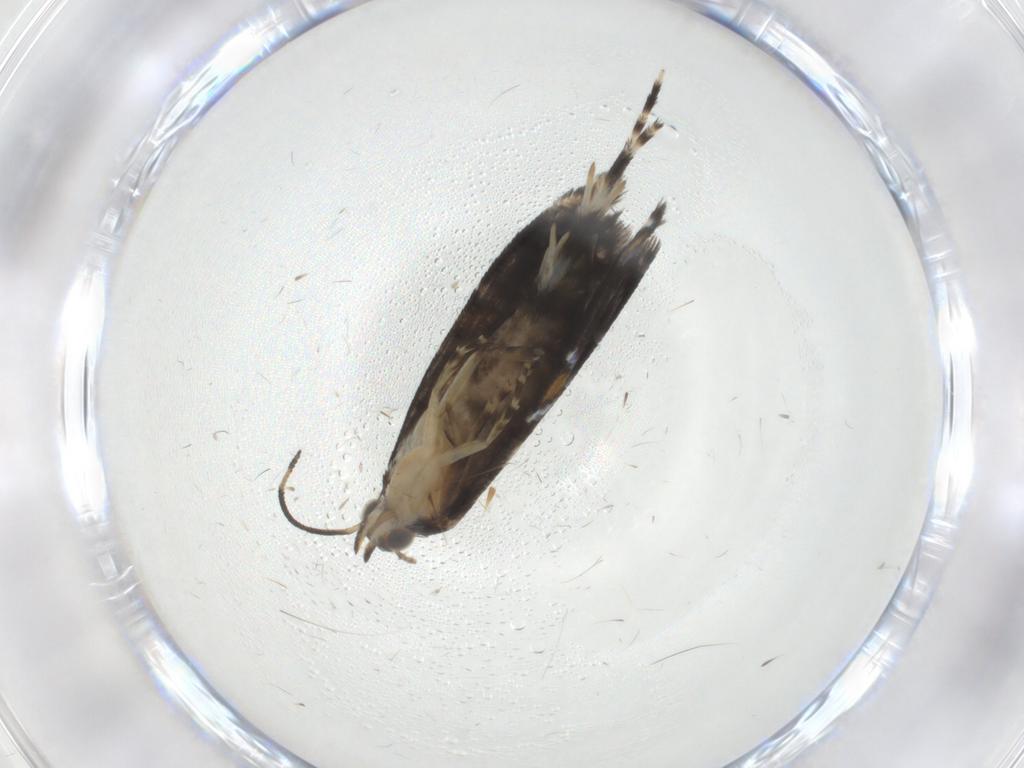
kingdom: Animalia
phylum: Arthropoda
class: Insecta
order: Lepidoptera
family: Glyphipterigidae
